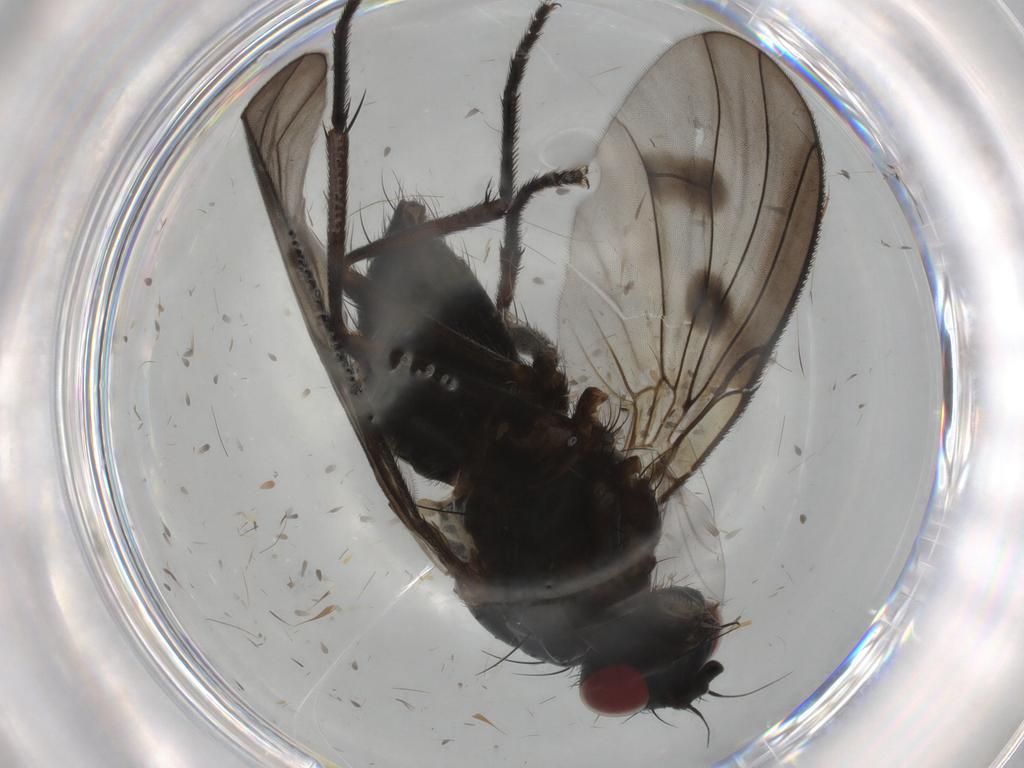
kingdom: Animalia
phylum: Arthropoda
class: Insecta
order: Diptera
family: Muscidae
